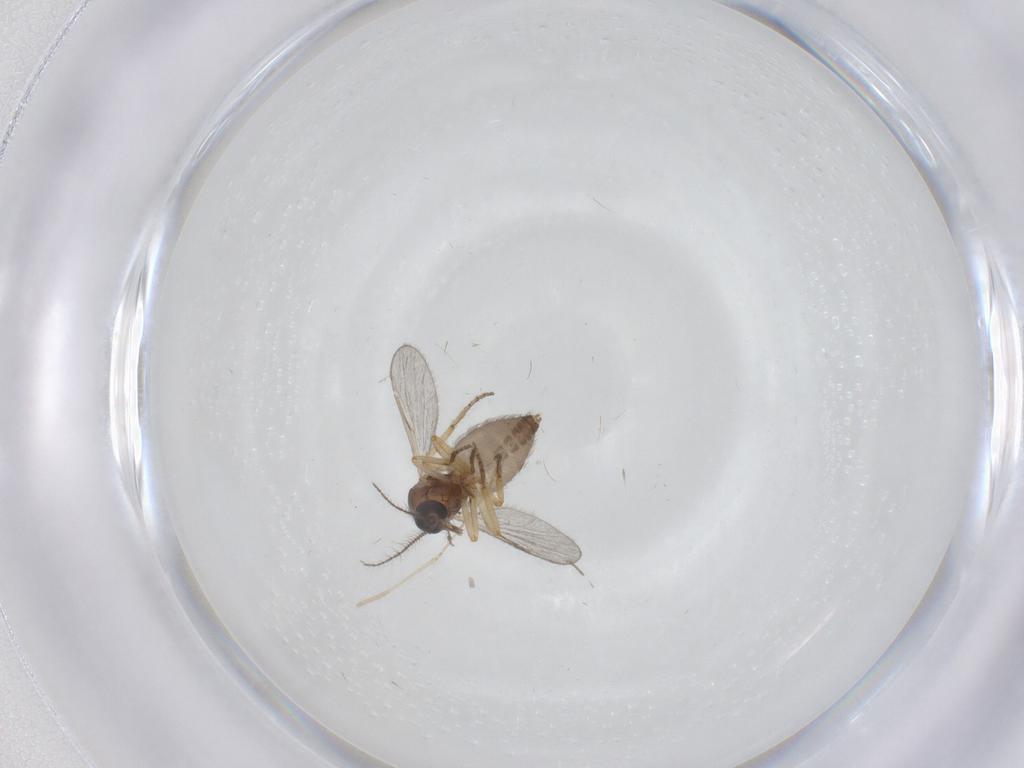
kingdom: Animalia
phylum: Arthropoda
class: Insecta
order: Diptera
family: Ceratopogonidae
